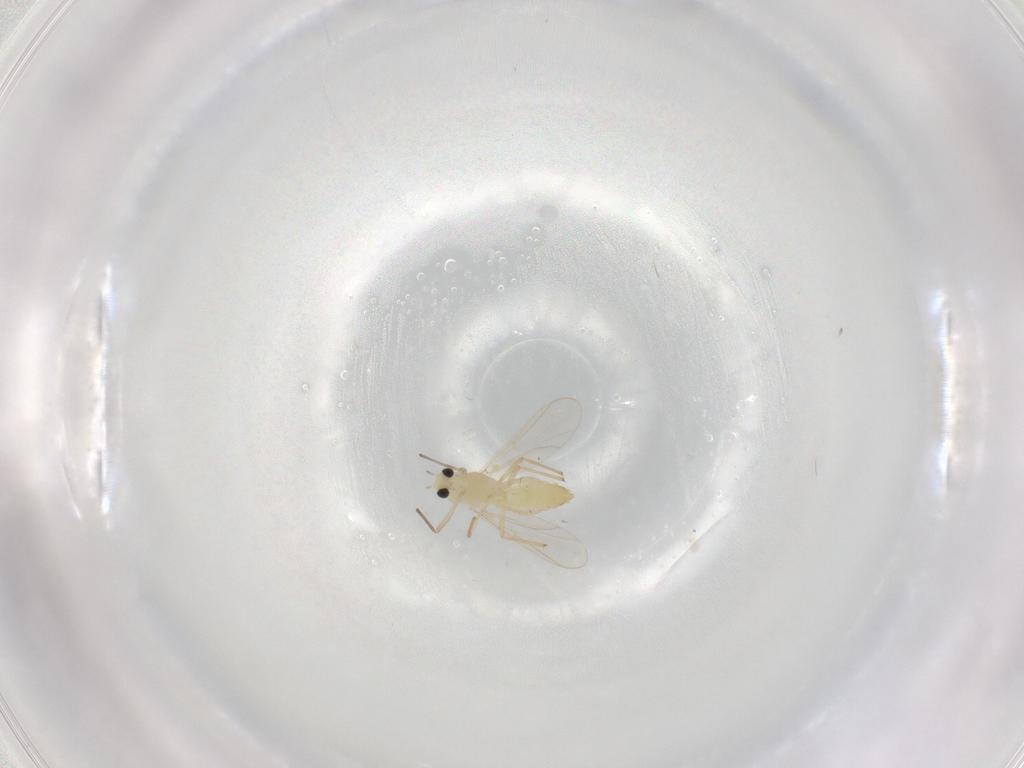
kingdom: Animalia
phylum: Arthropoda
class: Insecta
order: Diptera
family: Chironomidae
